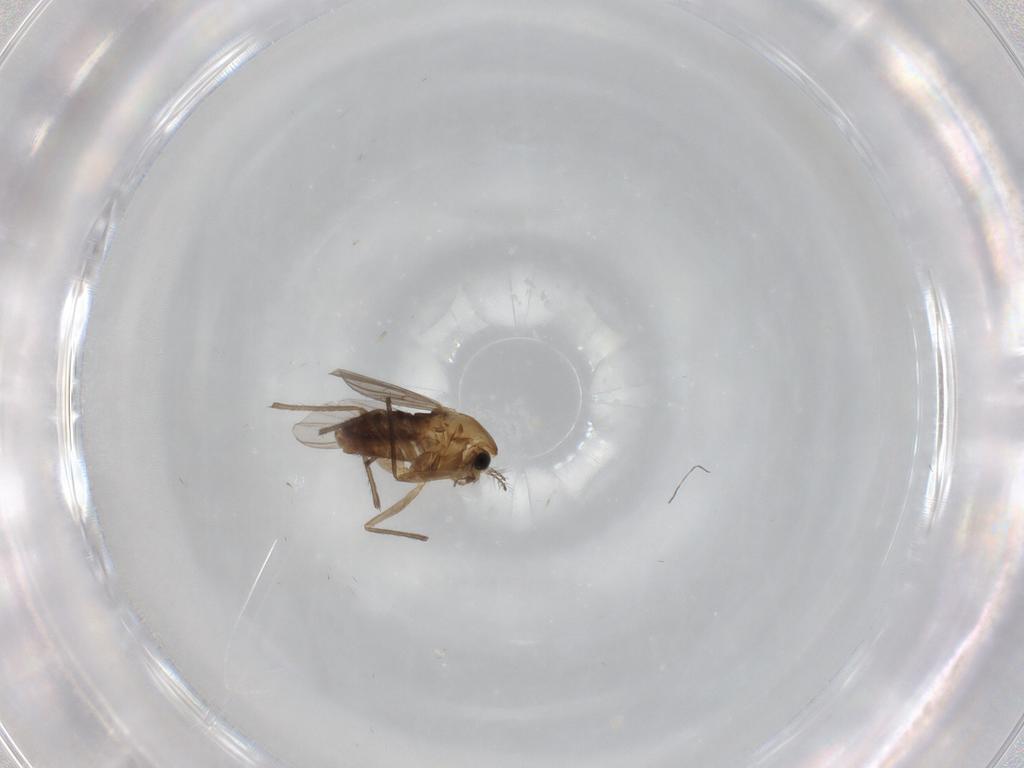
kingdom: Animalia
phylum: Arthropoda
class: Insecta
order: Diptera
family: Chironomidae
